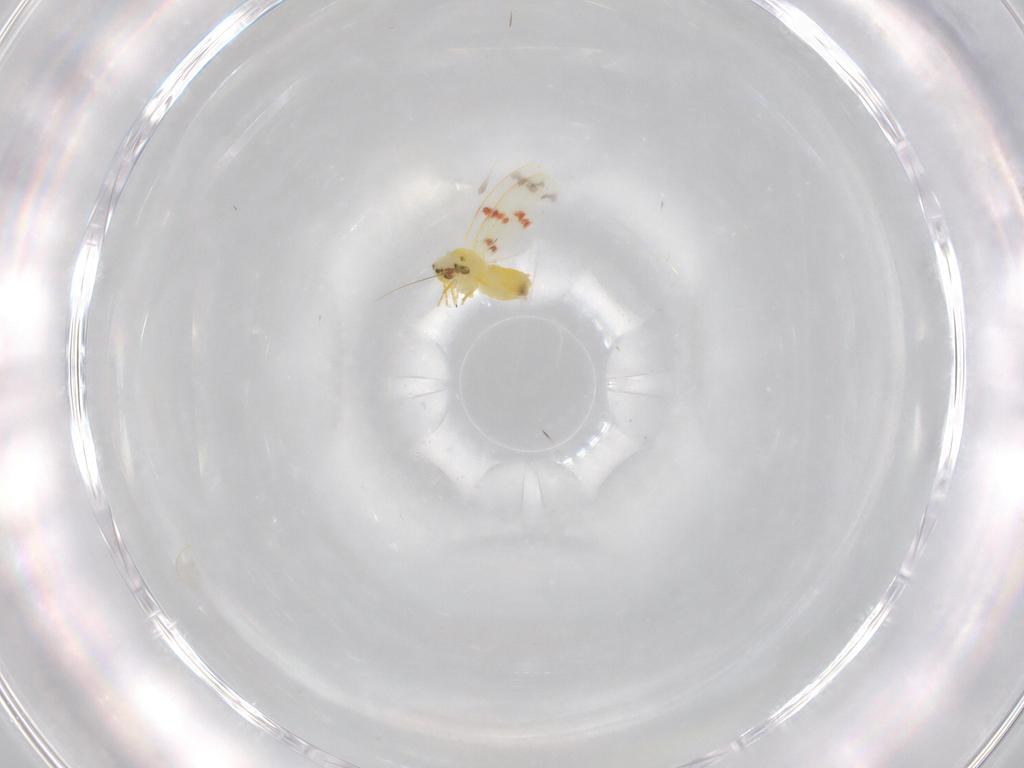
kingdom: Animalia
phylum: Arthropoda
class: Insecta
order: Hemiptera
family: Aleyrodidae
